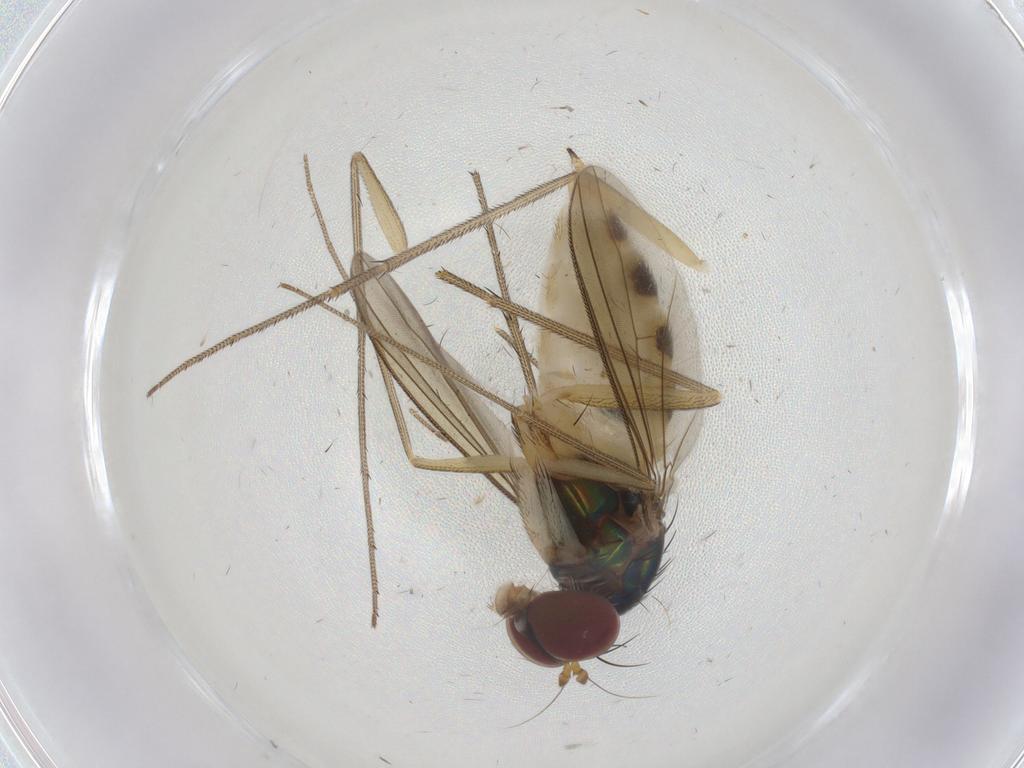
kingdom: Animalia
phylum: Arthropoda
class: Insecta
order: Diptera
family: Dolichopodidae
